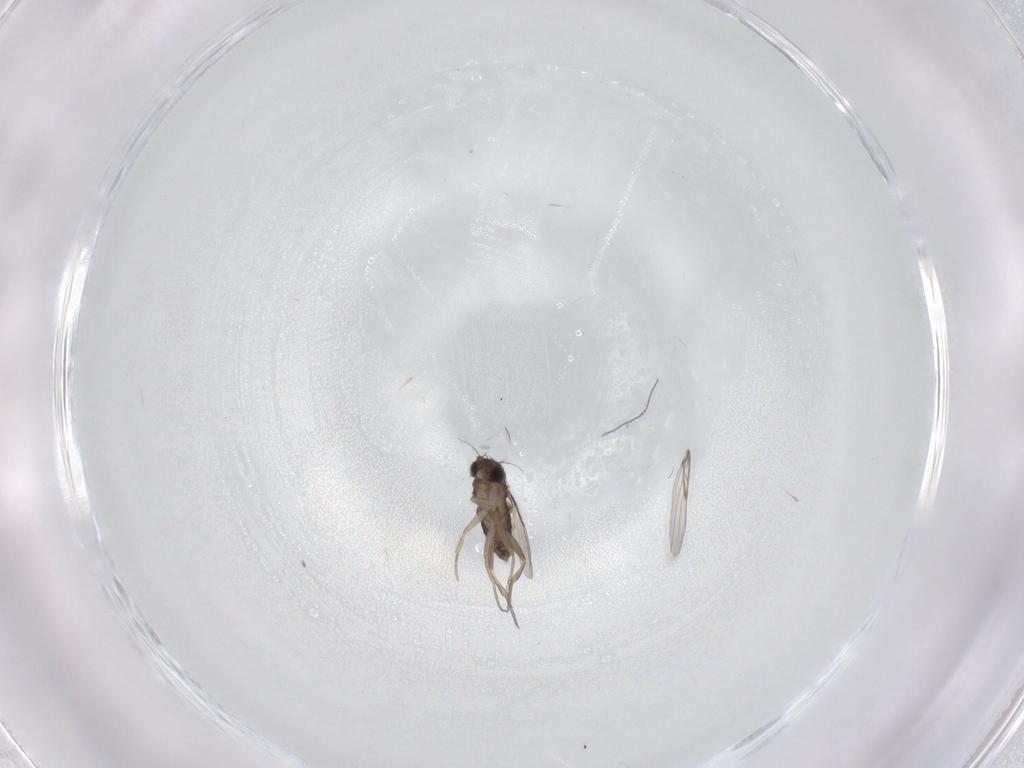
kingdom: Animalia
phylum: Arthropoda
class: Insecta
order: Diptera
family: Phoridae
